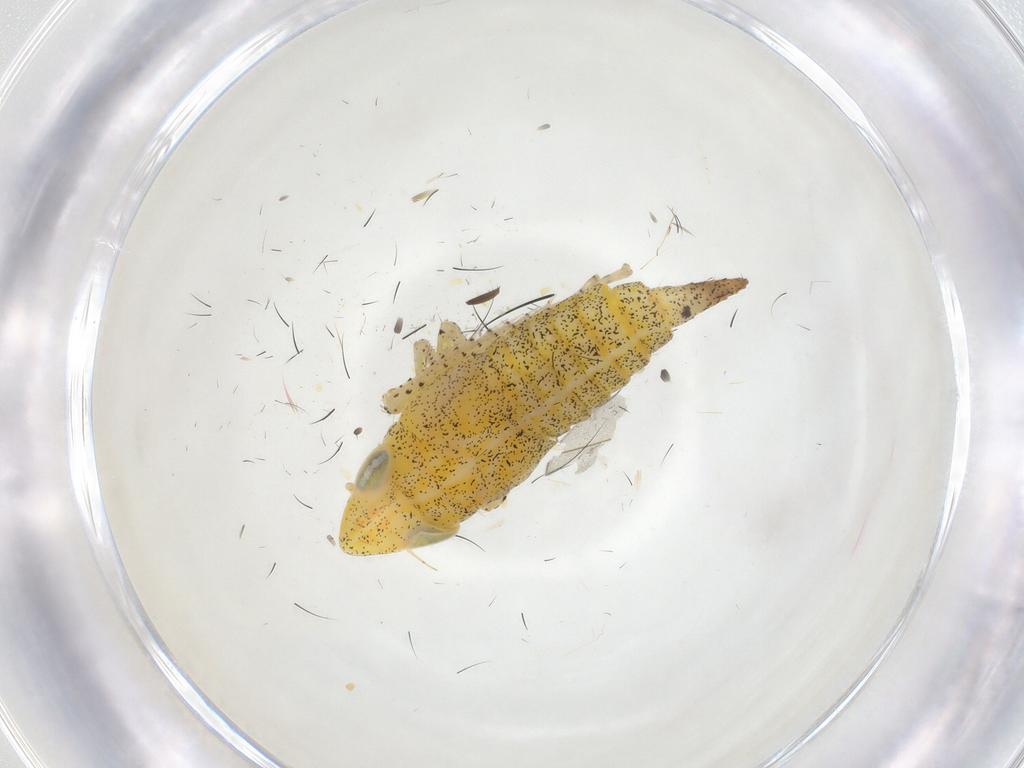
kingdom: Animalia
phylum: Arthropoda
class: Insecta
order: Hemiptera
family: Cicadellidae
